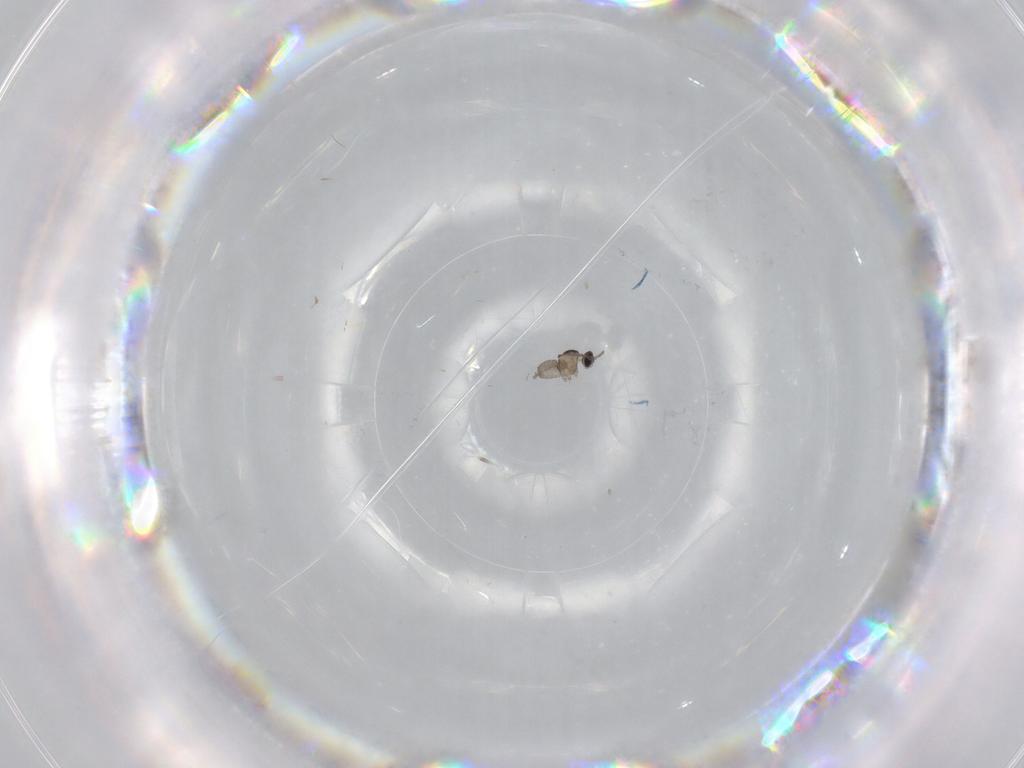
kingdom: Animalia
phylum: Arthropoda
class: Insecta
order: Diptera
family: Cecidomyiidae
